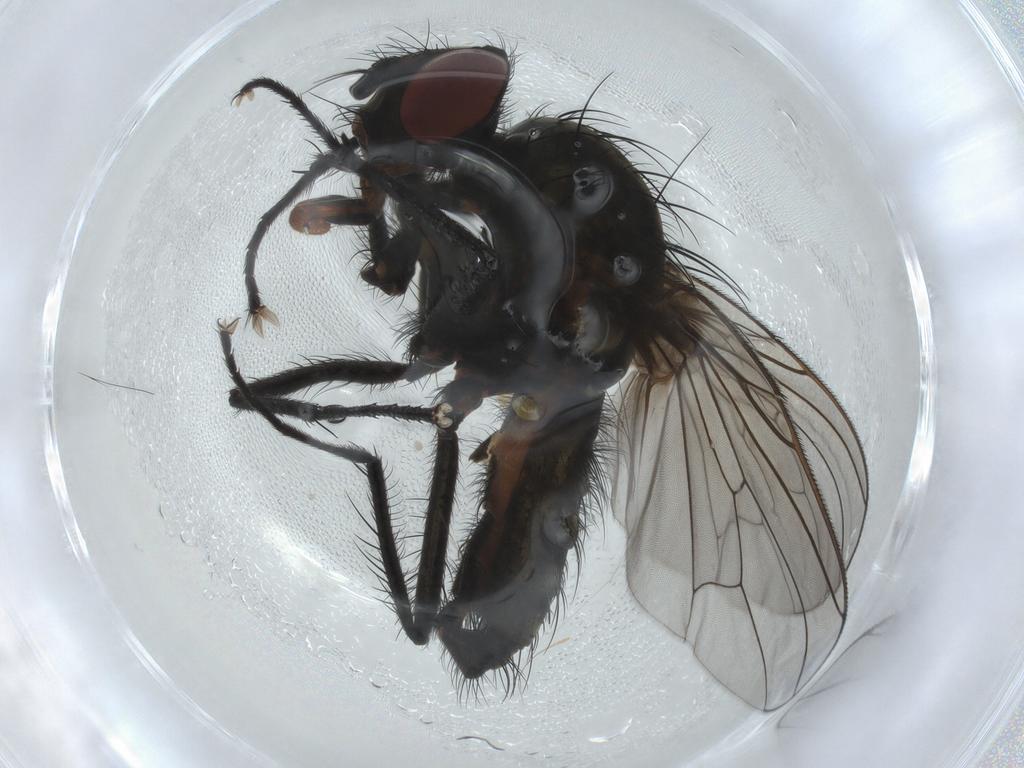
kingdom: Animalia
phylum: Arthropoda
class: Insecta
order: Diptera
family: Anthomyiidae
